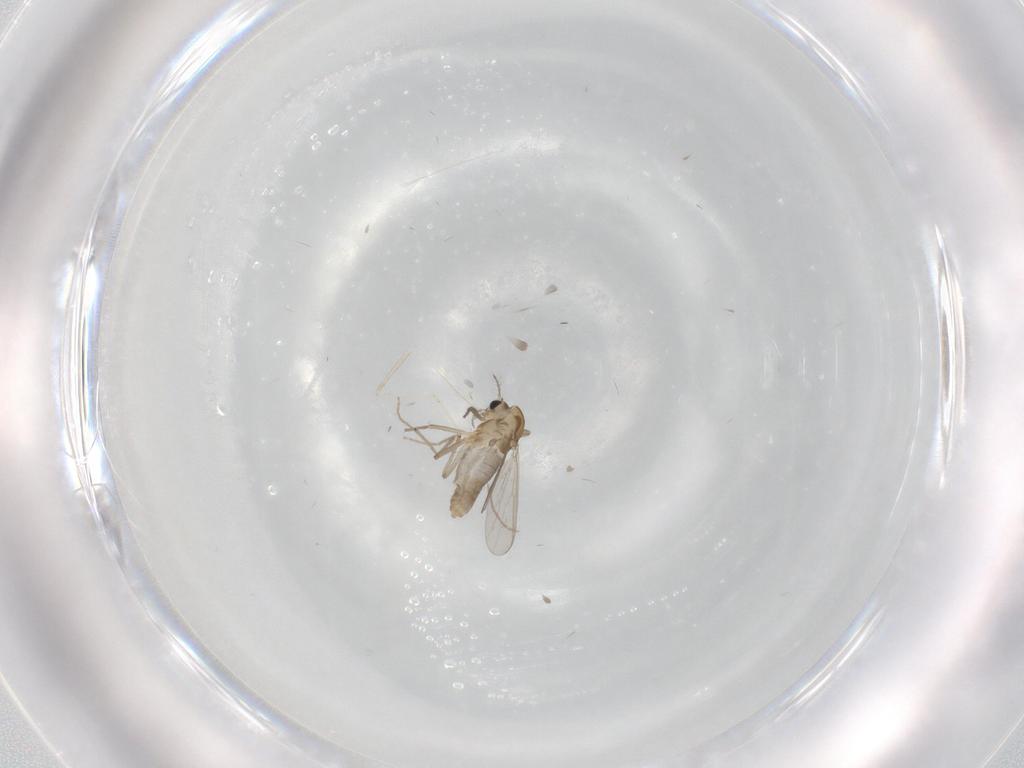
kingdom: Animalia
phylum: Arthropoda
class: Insecta
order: Diptera
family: Chironomidae
